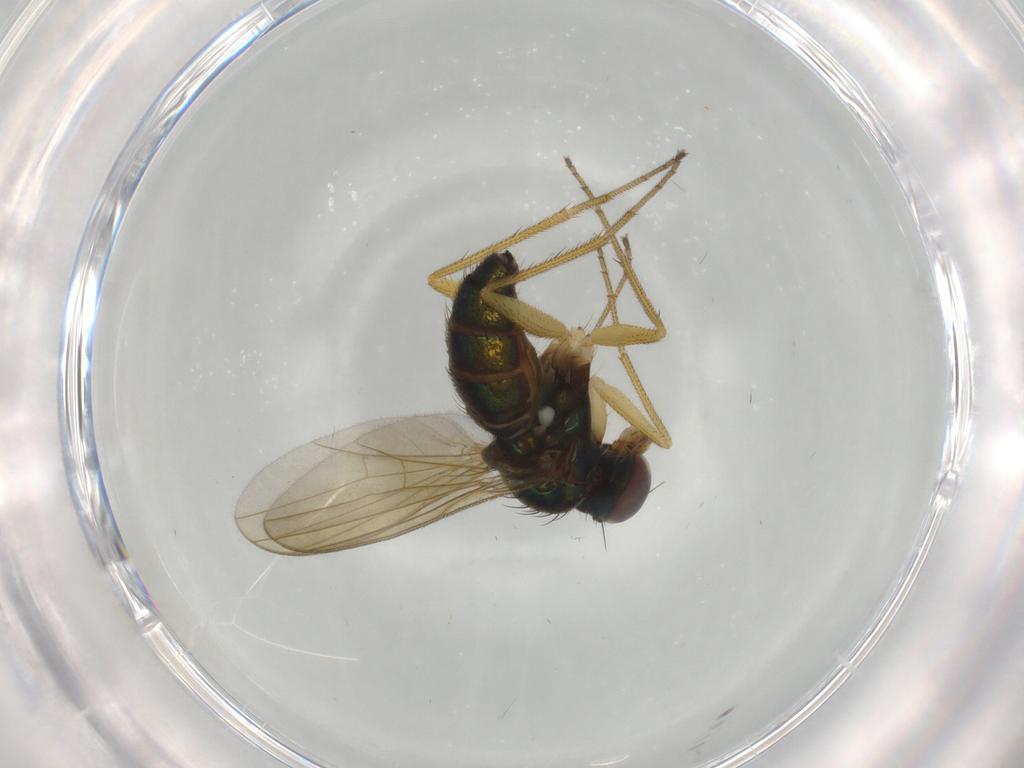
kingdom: Animalia
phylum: Arthropoda
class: Insecta
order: Diptera
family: Dolichopodidae
